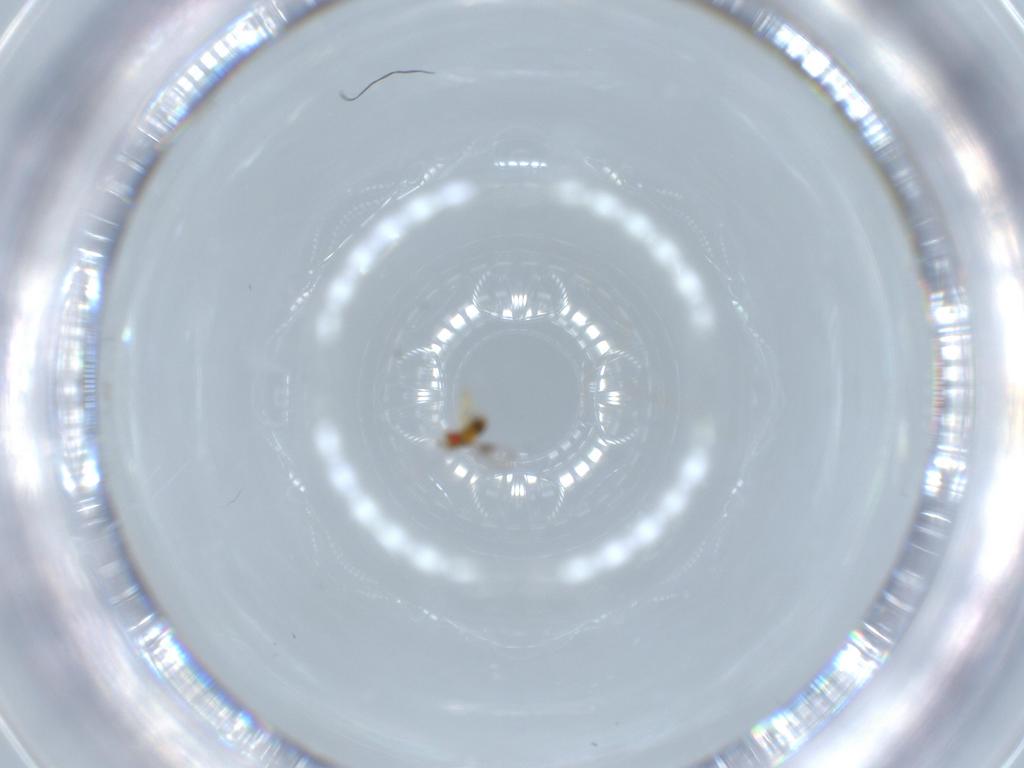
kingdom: Animalia
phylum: Arthropoda
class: Insecta
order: Hymenoptera
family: Trichogrammatidae
